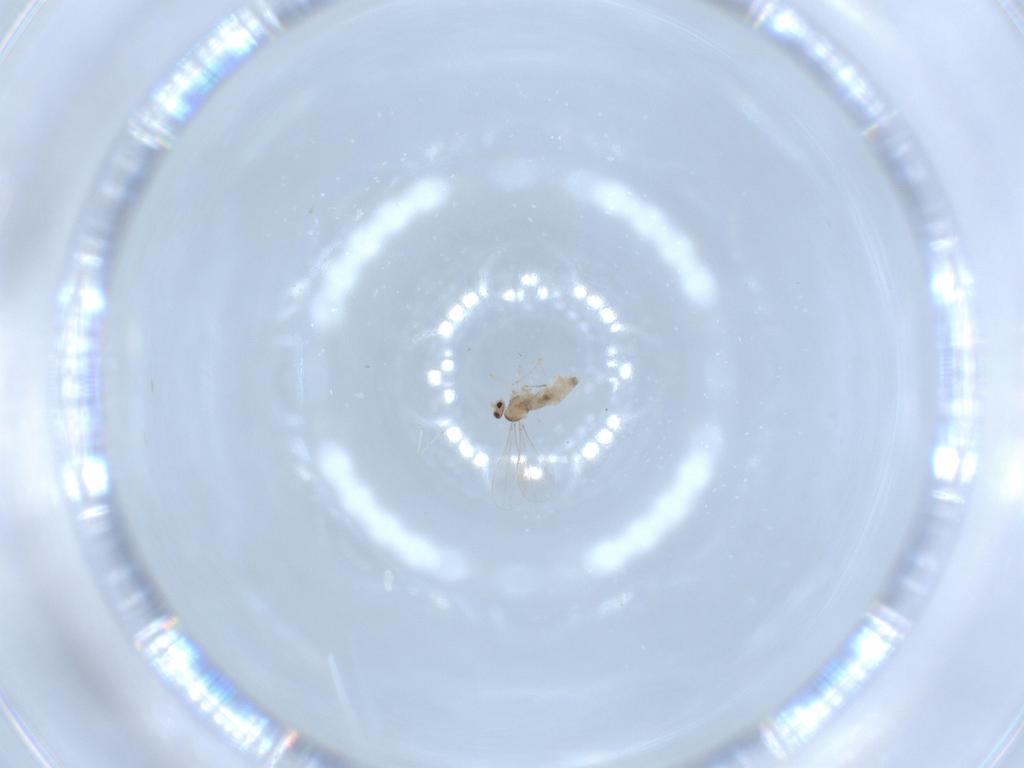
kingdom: Animalia
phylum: Arthropoda
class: Insecta
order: Diptera
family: Cecidomyiidae
